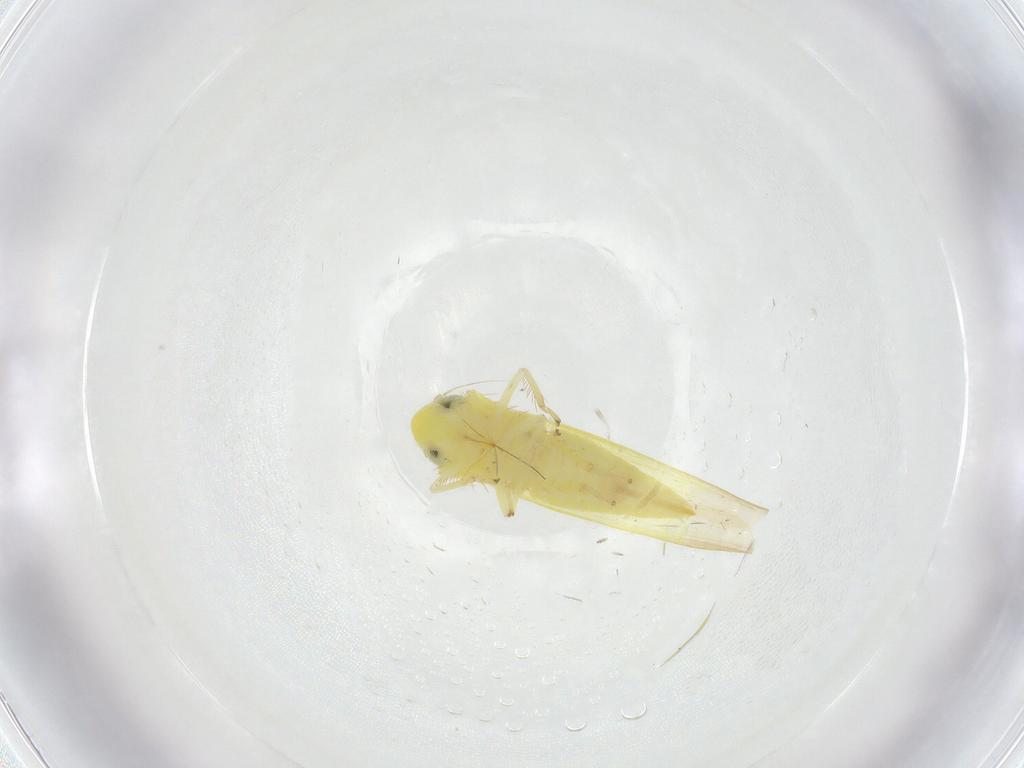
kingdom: Animalia
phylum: Arthropoda
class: Insecta
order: Hemiptera
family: Cicadellidae
